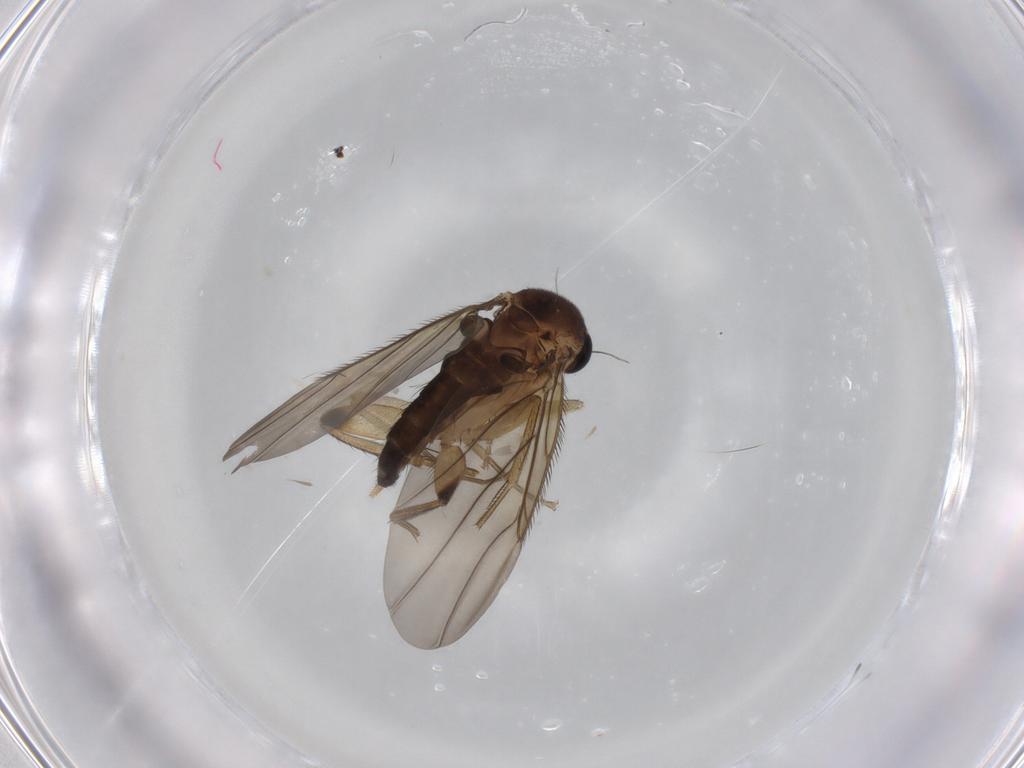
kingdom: Animalia
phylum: Arthropoda
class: Insecta
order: Diptera
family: Phoridae
